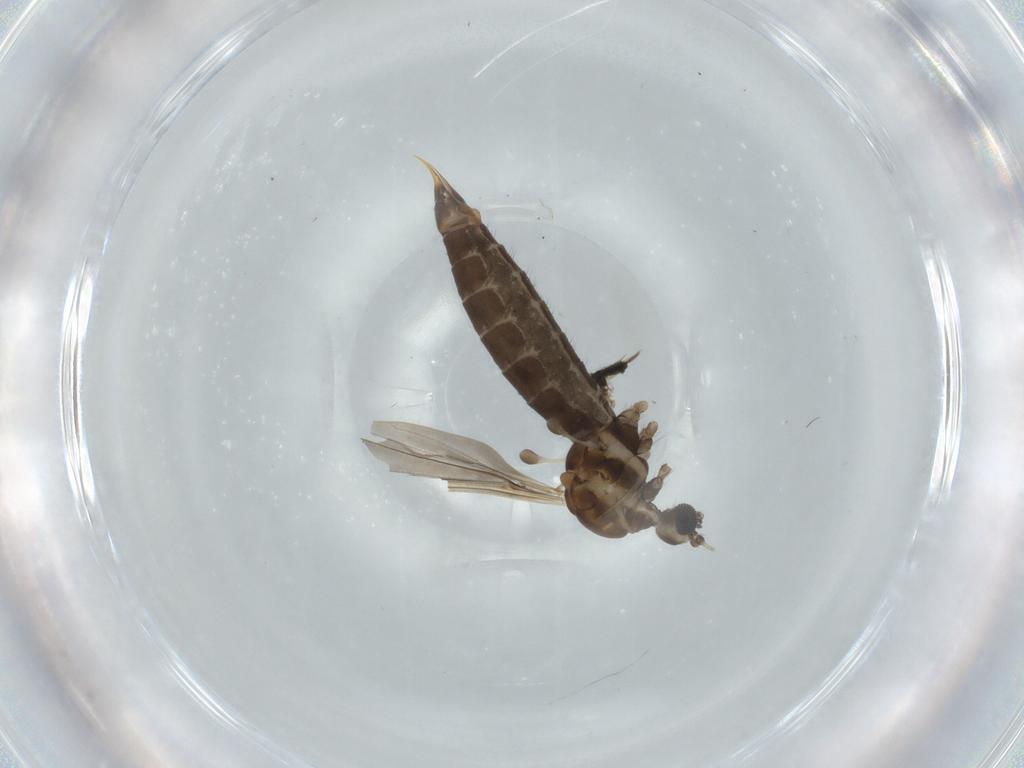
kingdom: Animalia
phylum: Arthropoda
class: Insecta
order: Diptera
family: Limoniidae
